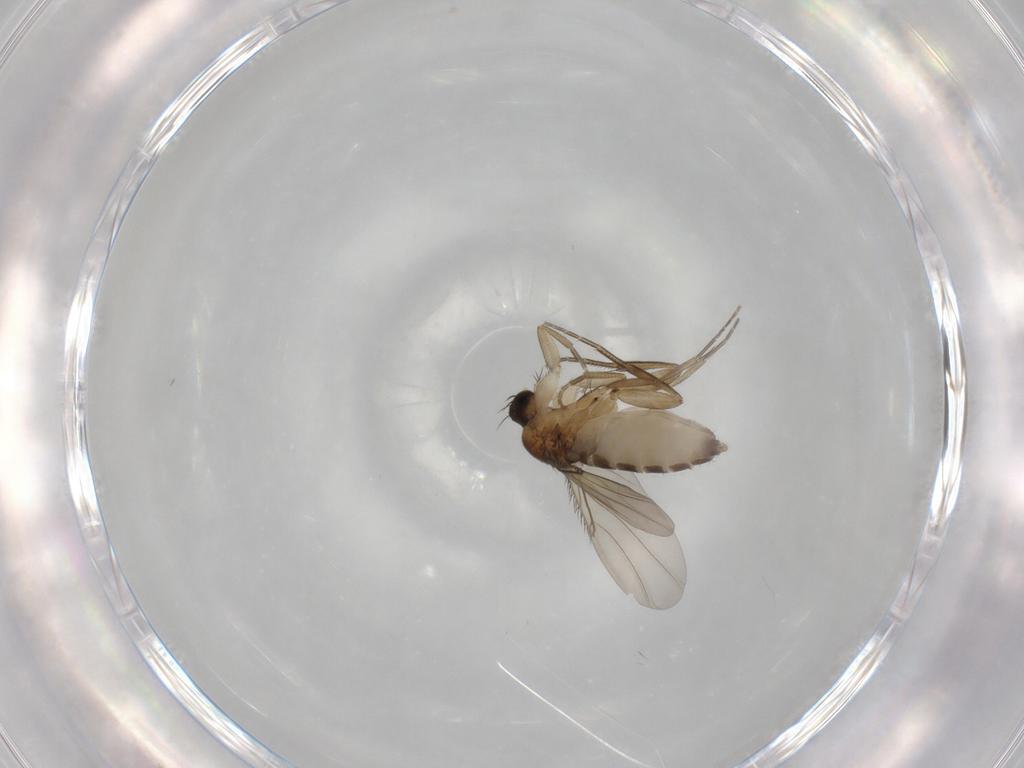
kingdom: Animalia
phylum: Arthropoda
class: Insecta
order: Diptera
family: Phoridae
